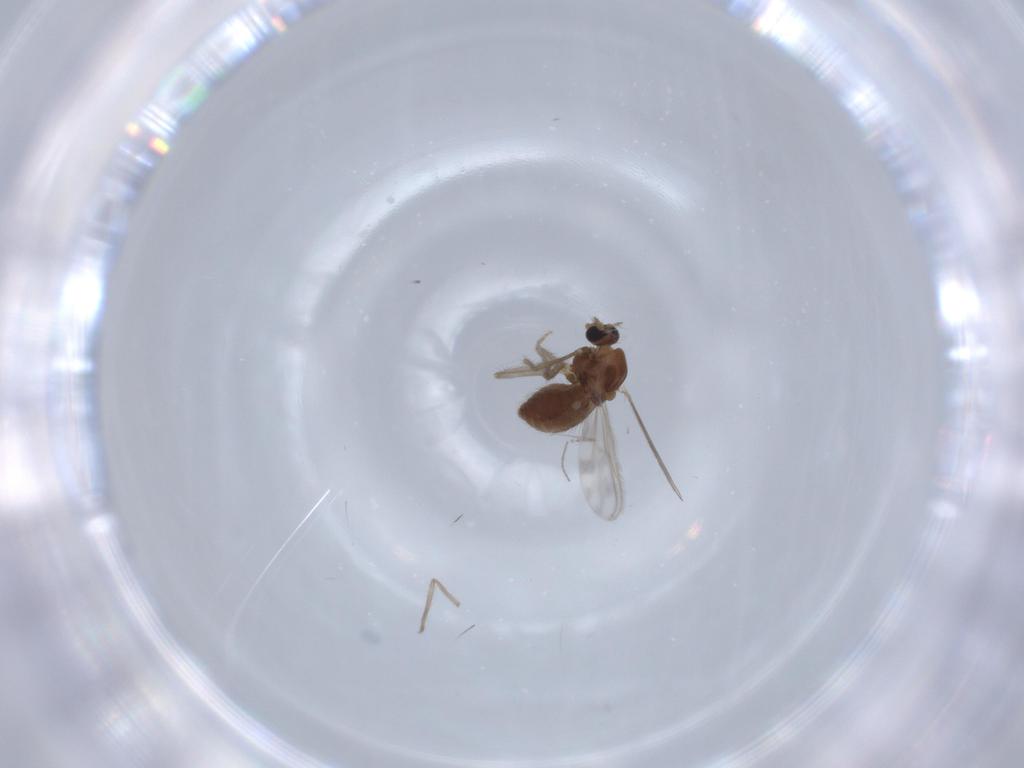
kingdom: Animalia
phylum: Arthropoda
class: Insecta
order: Diptera
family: Chironomidae
